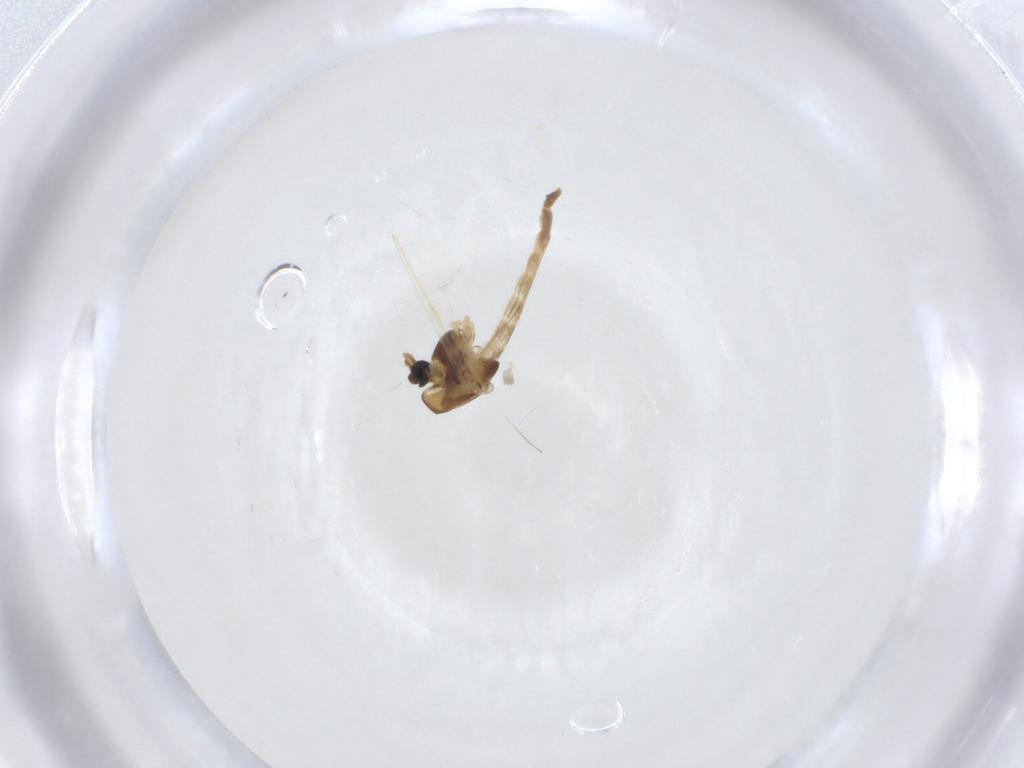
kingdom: Animalia
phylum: Arthropoda
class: Insecta
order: Diptera
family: Chironomidae
